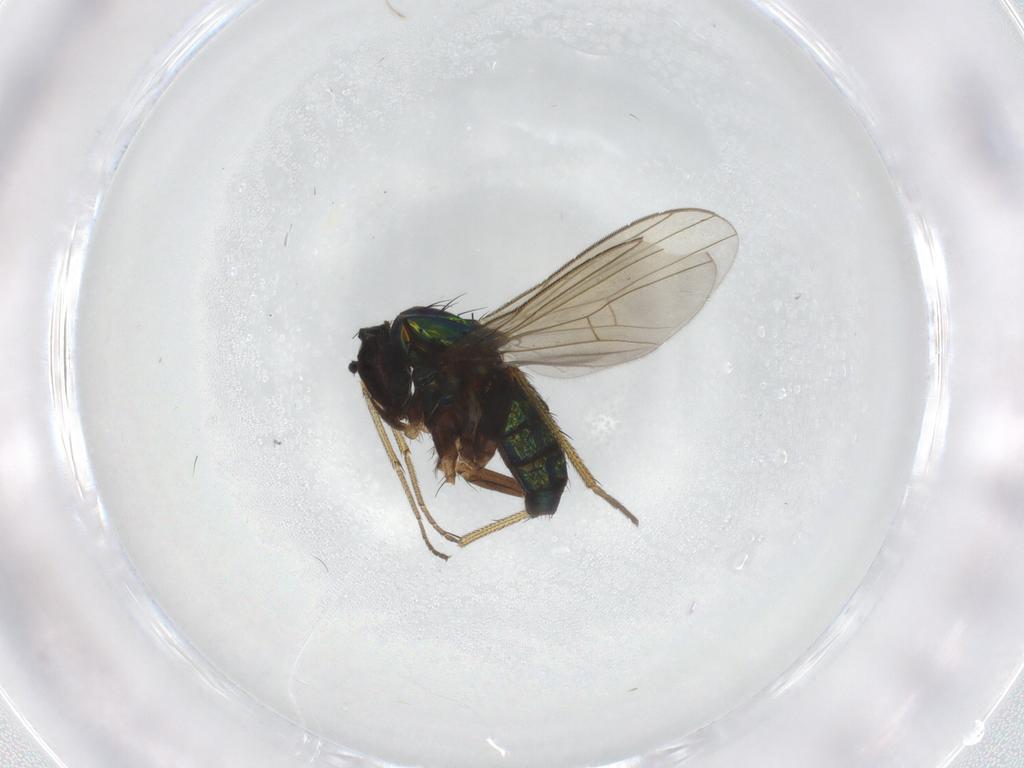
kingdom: Animalia
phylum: Arthropoda
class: Insecta
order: Diptera
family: Dolichopodidae
